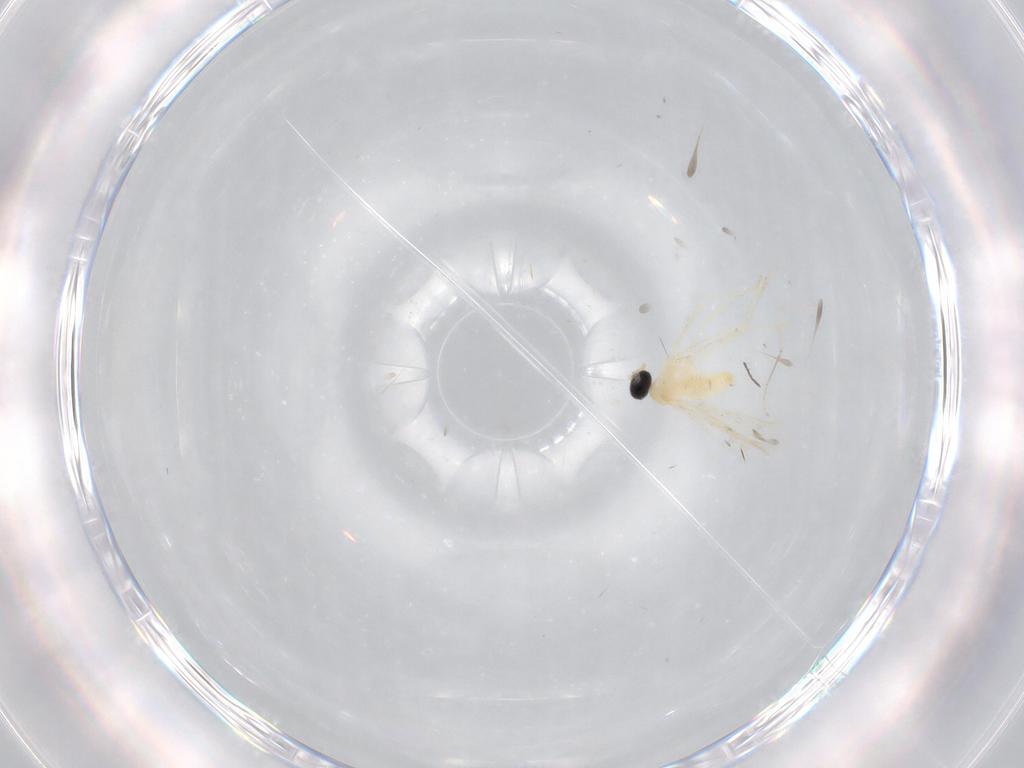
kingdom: Animalia
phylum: Arthropoda
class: Insecta
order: Diptera
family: Cecidomyiidae
